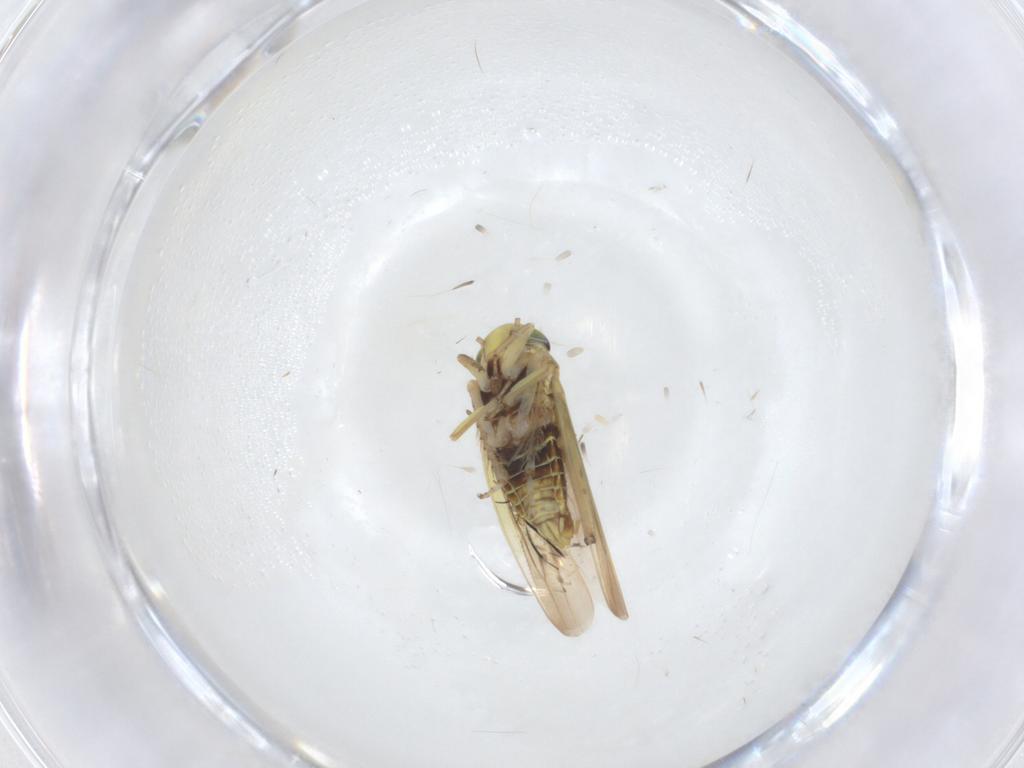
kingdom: Animalia
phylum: Arthropoda
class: Insecta
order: Hemiptera
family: Cicadellidae
